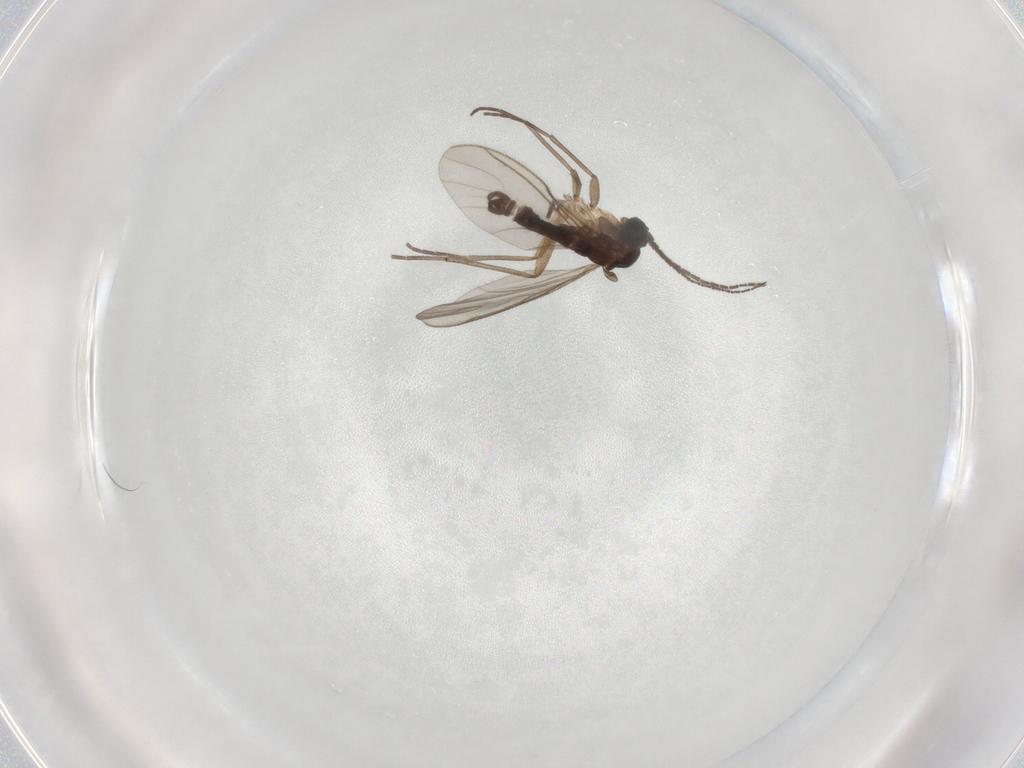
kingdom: Animalia
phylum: Arthropoda
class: Insecta
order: Diptera
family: Sciaridae
